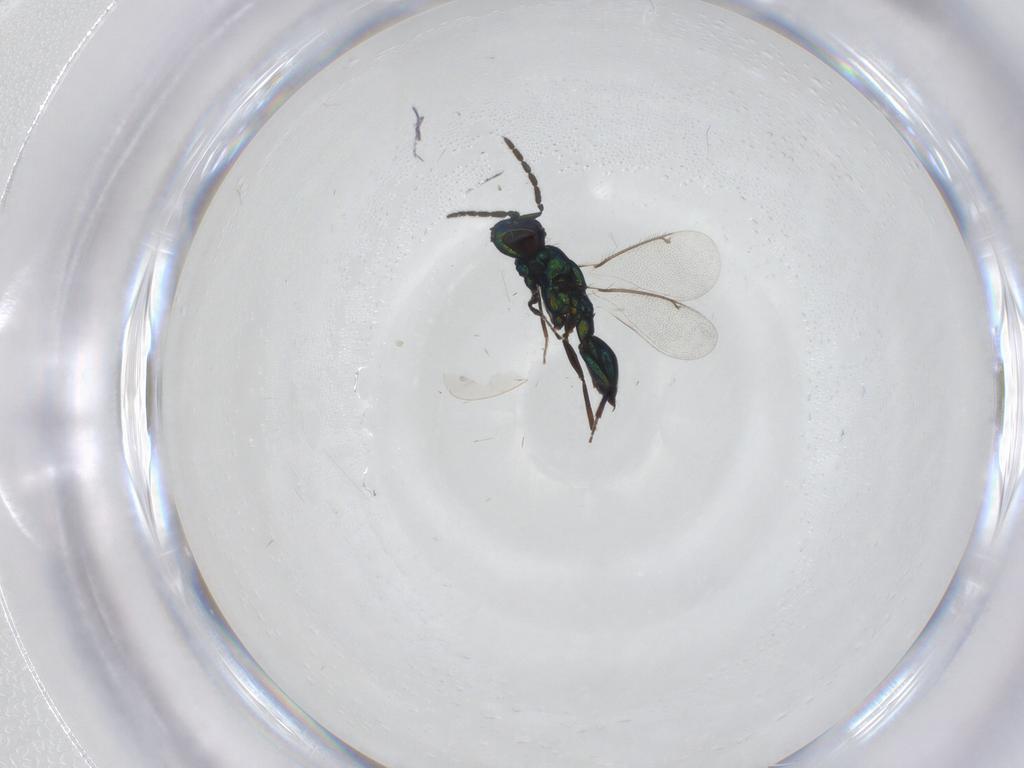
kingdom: Animalia
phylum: Arthropoda
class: Insecta
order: Hymenoptera
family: Eulophidae
